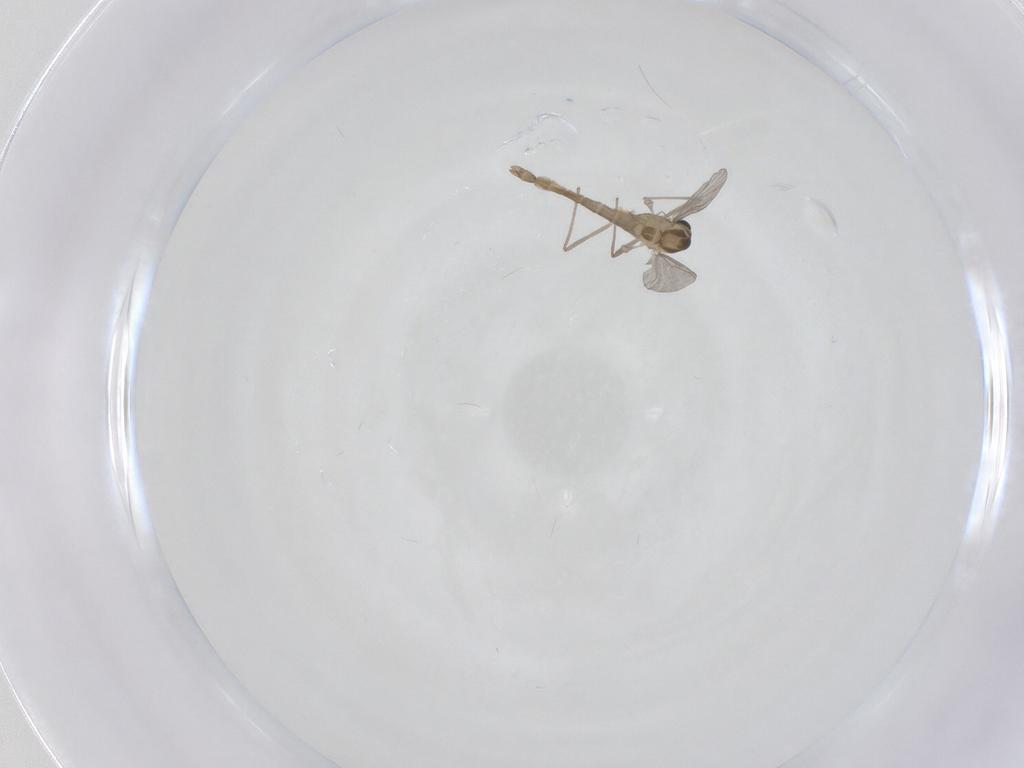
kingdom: Animalia
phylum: Arthropoda
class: Insecta
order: Diptera
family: Chironomidae
